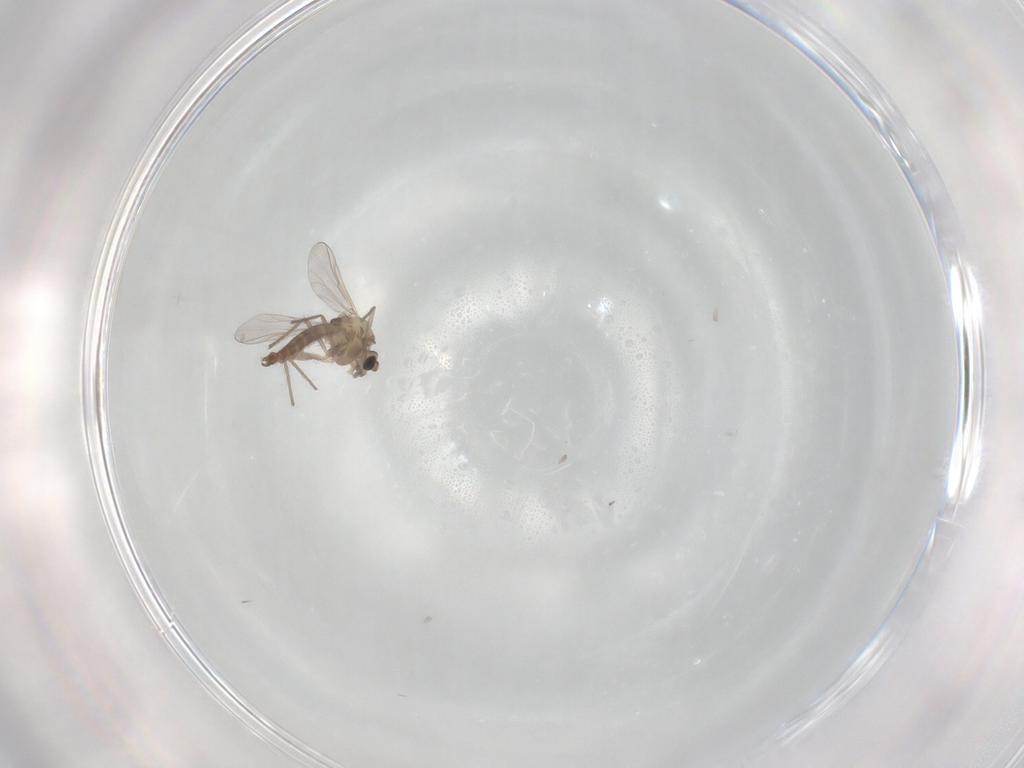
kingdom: Animalia
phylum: Arthropoda
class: Insecta
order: Diptera
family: Chironomidae
